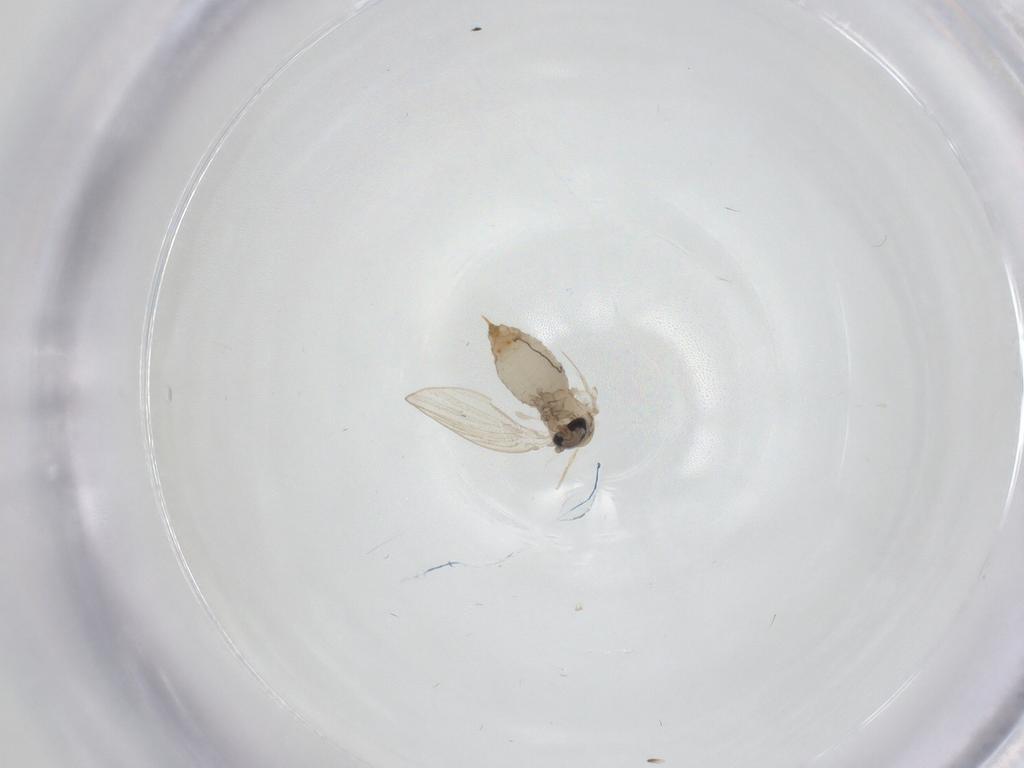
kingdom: Animalia
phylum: Arthropoda
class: Insecta
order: Diptera
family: Psychodidae
